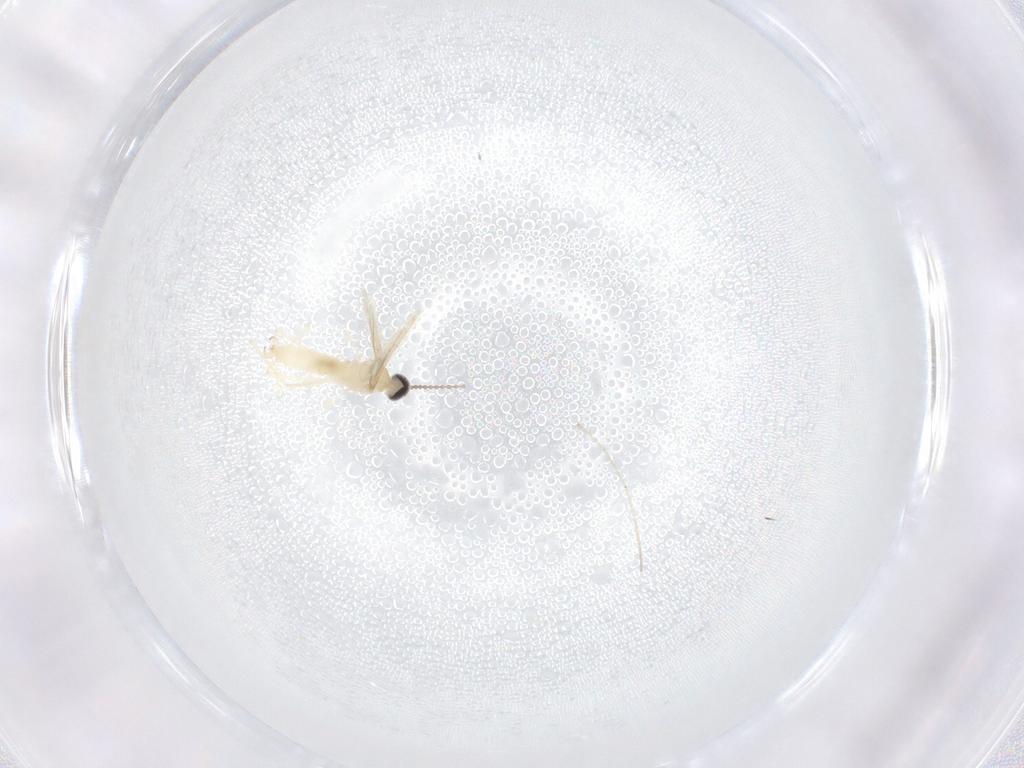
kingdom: Animalia
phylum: Arthropoda
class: Insecta
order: Diptera
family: Cecidomyiidae
